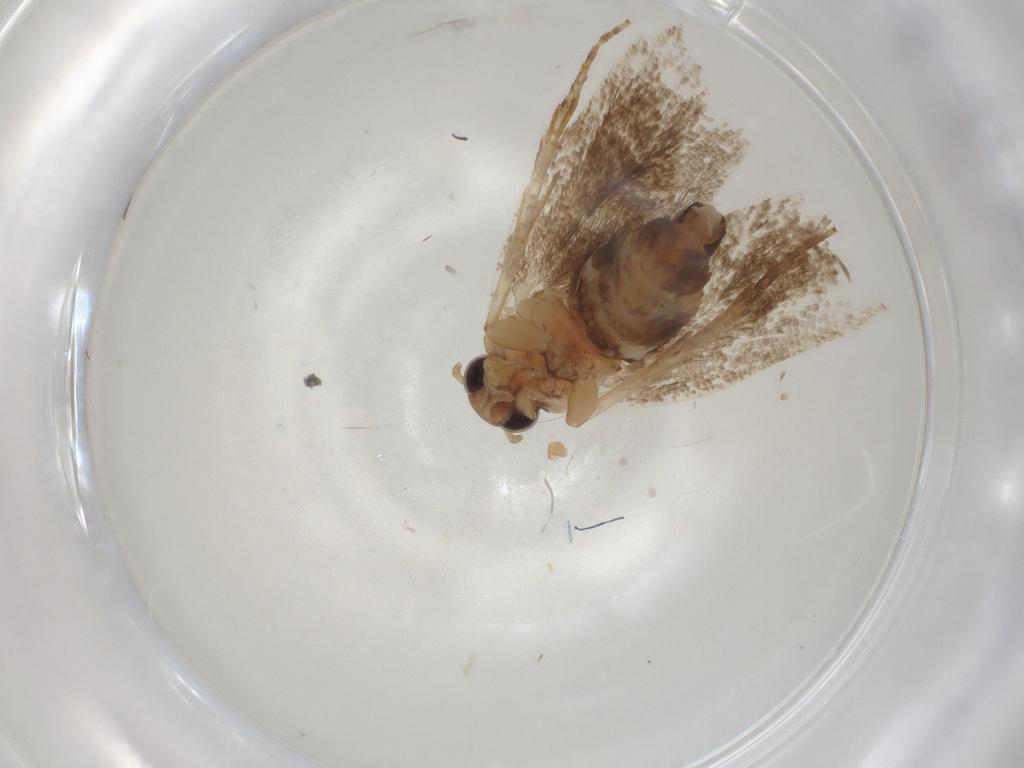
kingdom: Animalia
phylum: Arthropoda
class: Insecta
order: Lepidoptera
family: Oecophoridae
